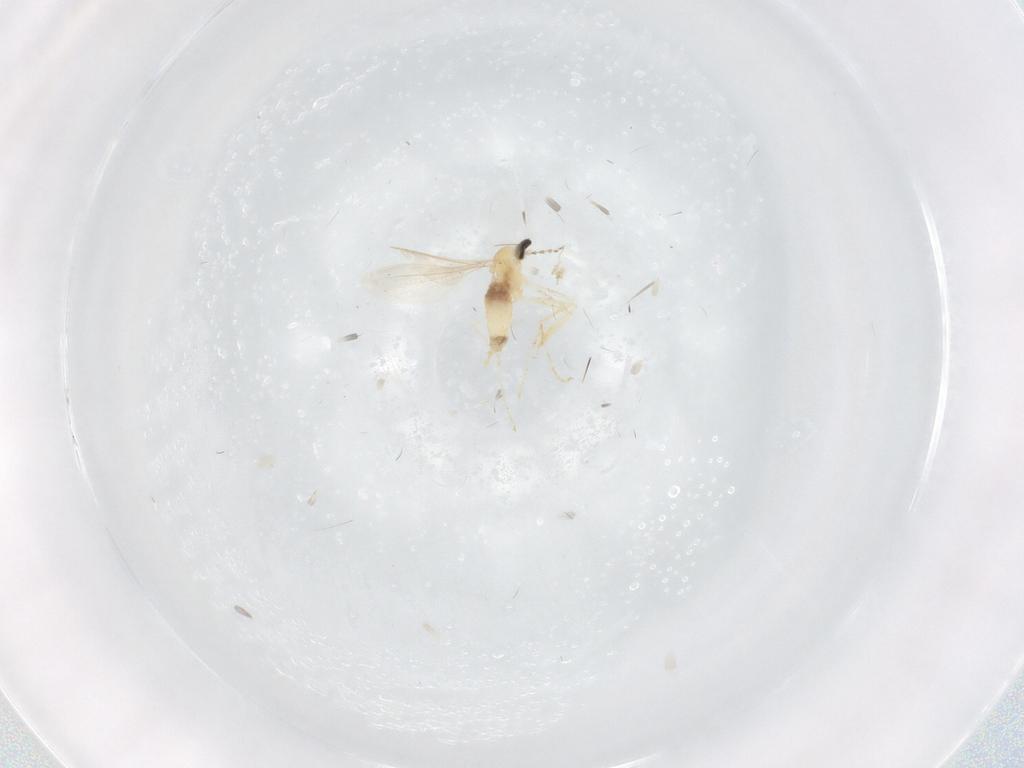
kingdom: Animalia
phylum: Arthropoda
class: Insecta
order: Diptera
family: Cecidomyiidae
